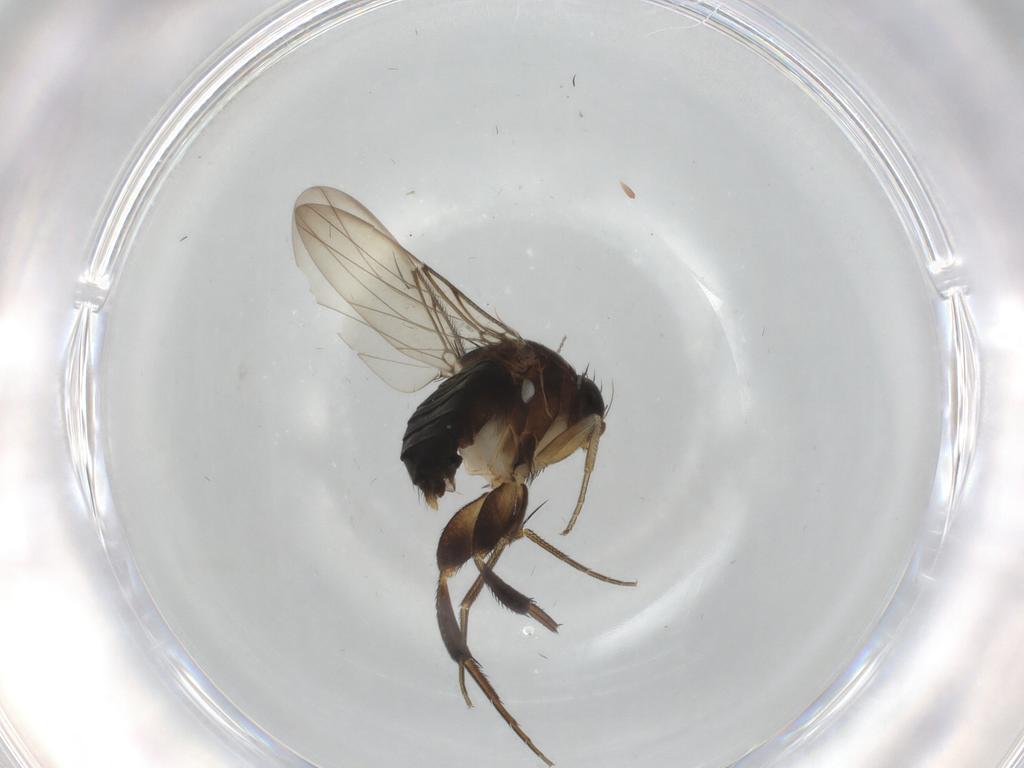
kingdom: Animalia
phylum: Arthropoda
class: Insecta
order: Diptera
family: Phoridae
